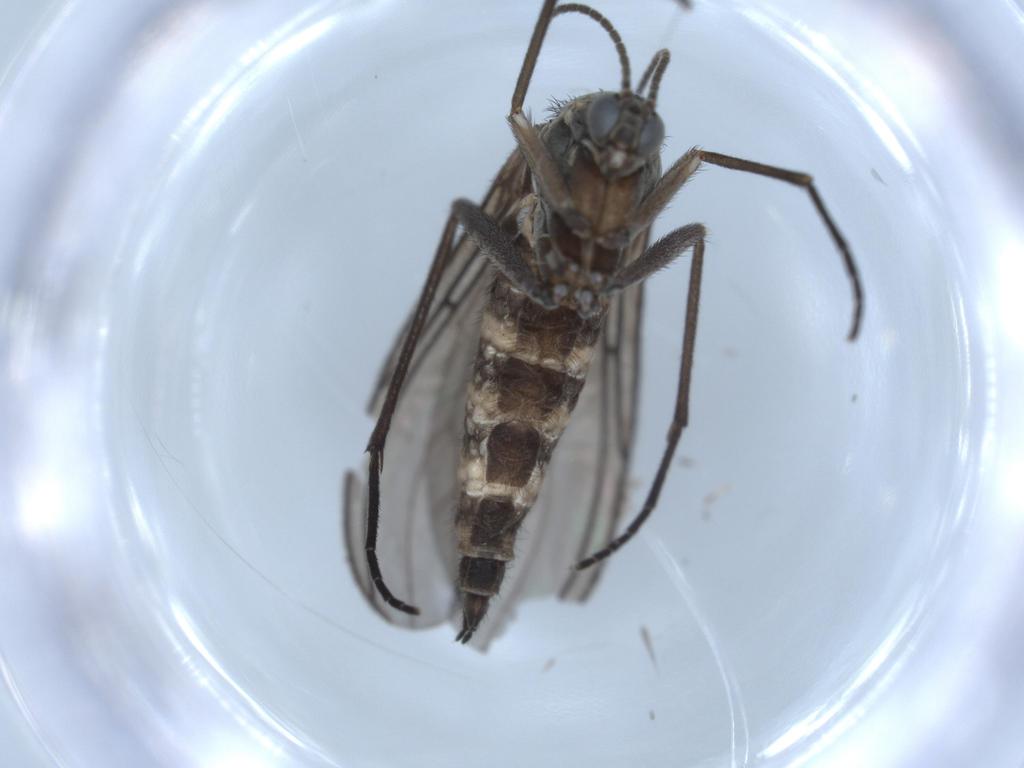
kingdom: Animalia
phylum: Arthropoda
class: Insecta
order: Diptera
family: Sciaridae
